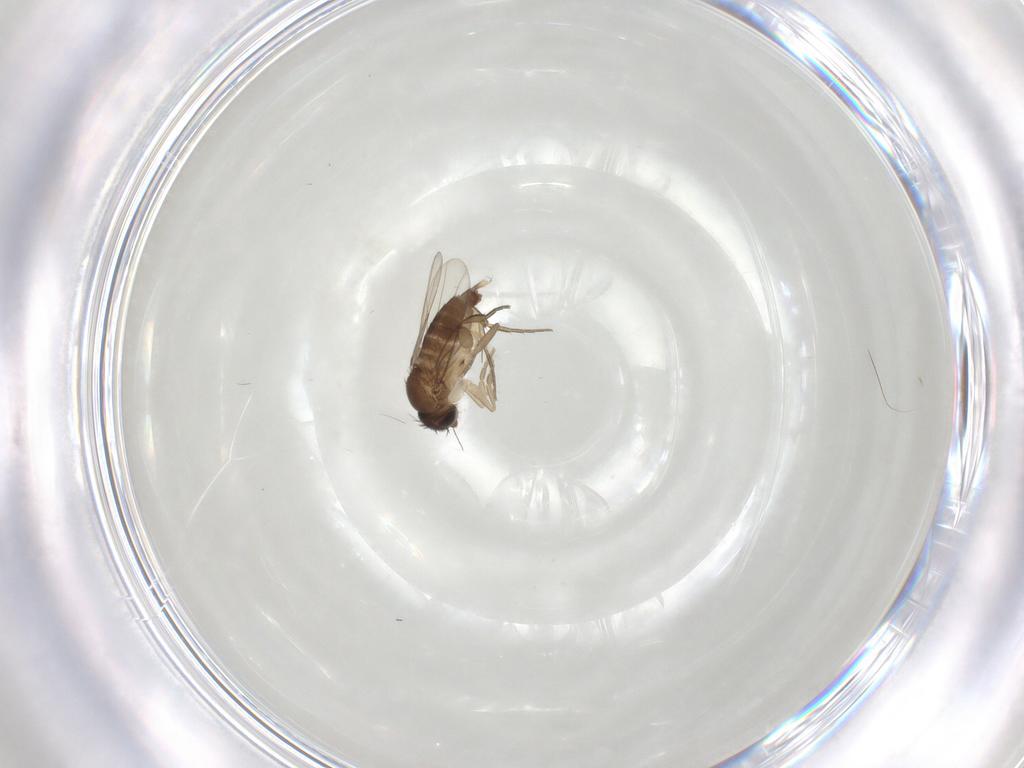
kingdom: Animalia
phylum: Arthropoda
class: Insecta
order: Diptera
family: Phoridae
